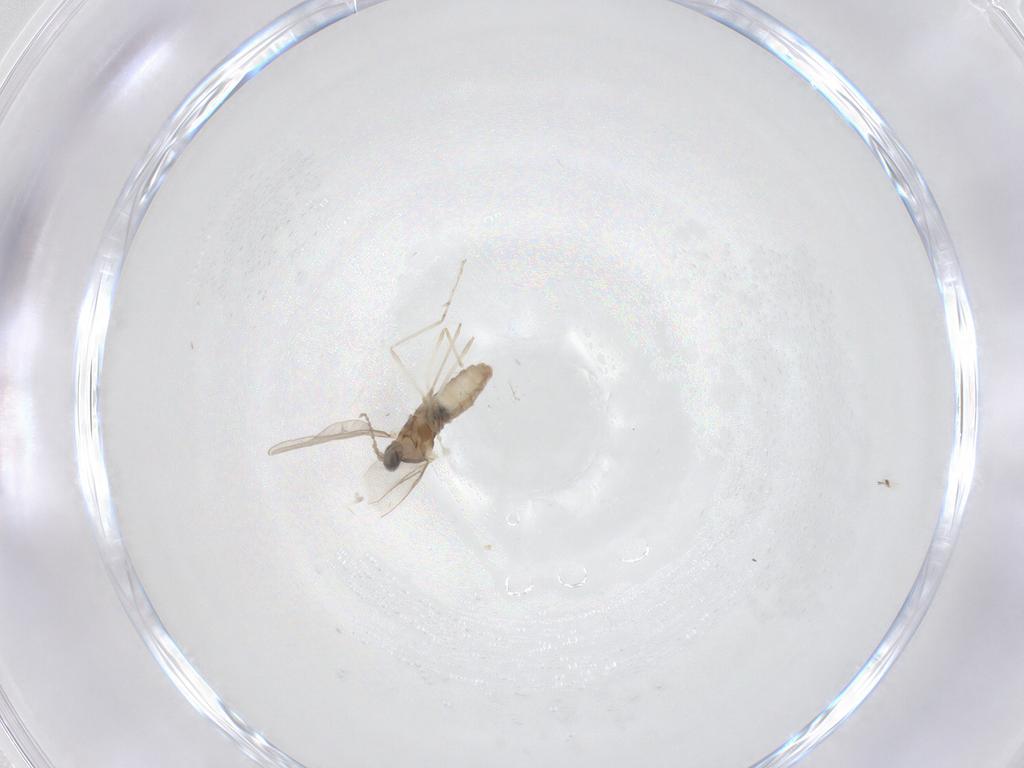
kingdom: Animalia
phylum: Arthropoda
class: Insecta
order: Diptera
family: Cecidomyiidae
